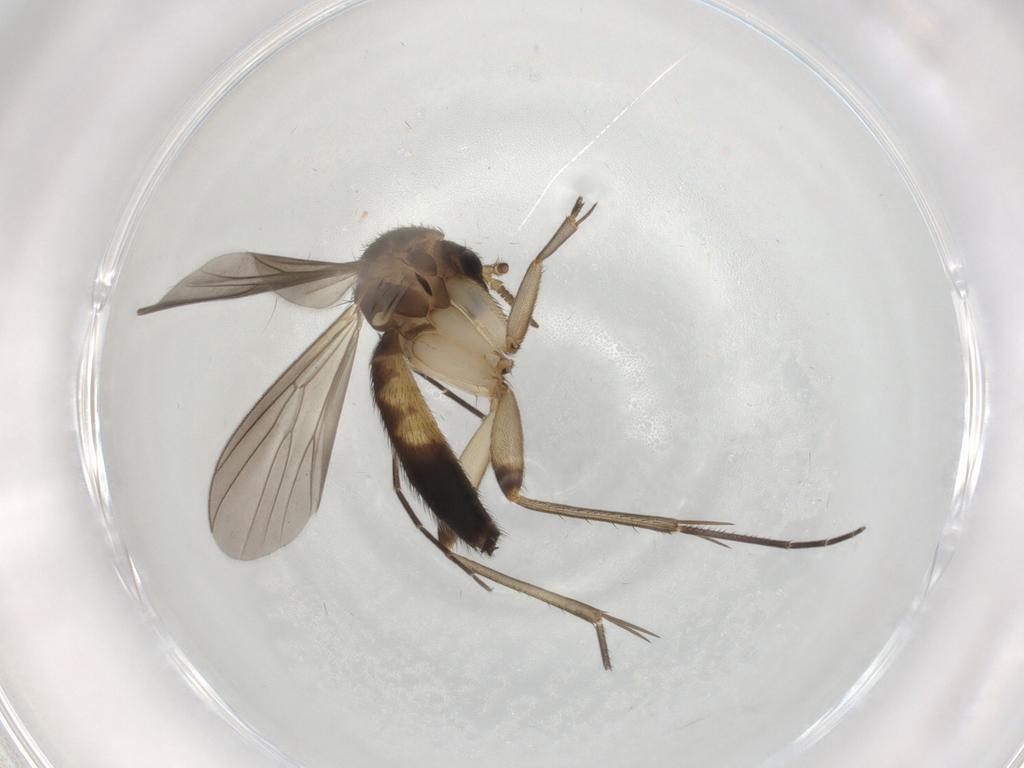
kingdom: Animalia
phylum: Arthropoda
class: Insecta
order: Diptera
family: Mycetophilidae
